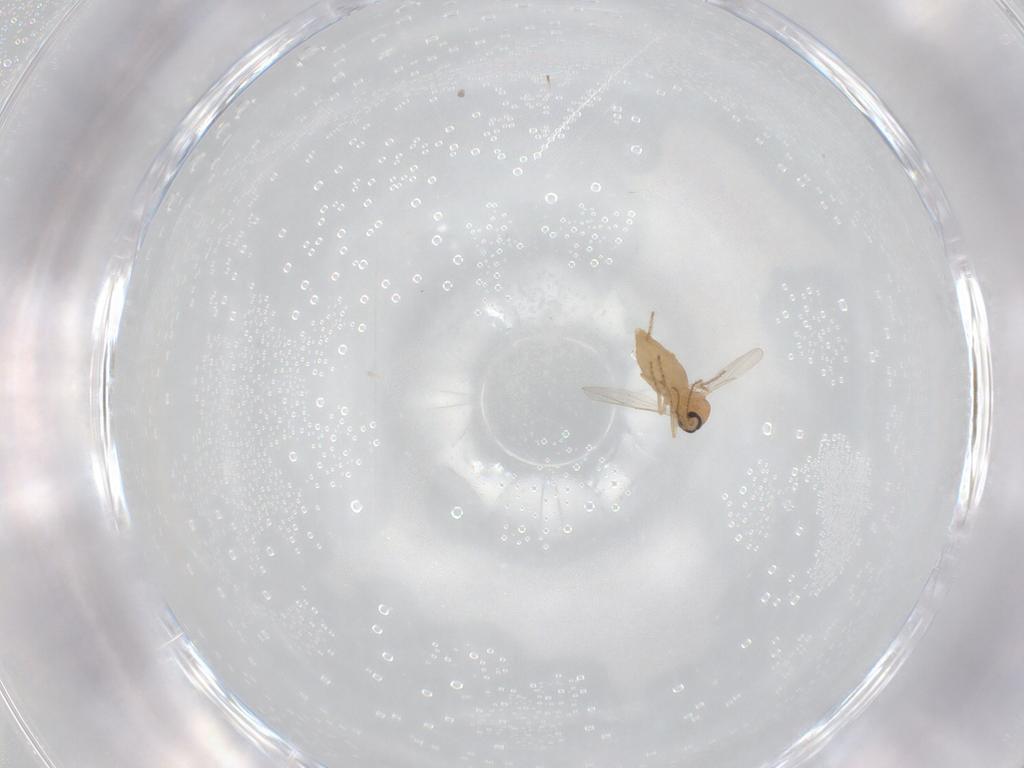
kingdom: Animalia
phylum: Arthropoda
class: Insecta
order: Diptera
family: Ceratopogonidae
